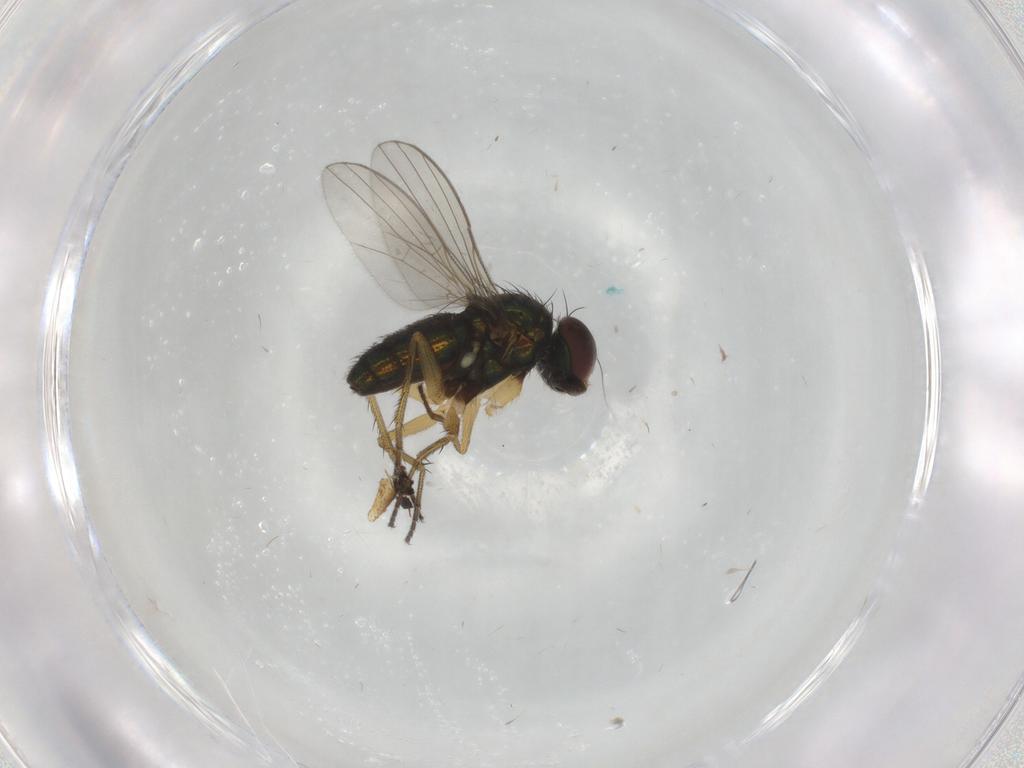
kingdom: Animalia
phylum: Arthropoda
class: Insecta
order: Diptera
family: Dolichopodidae
